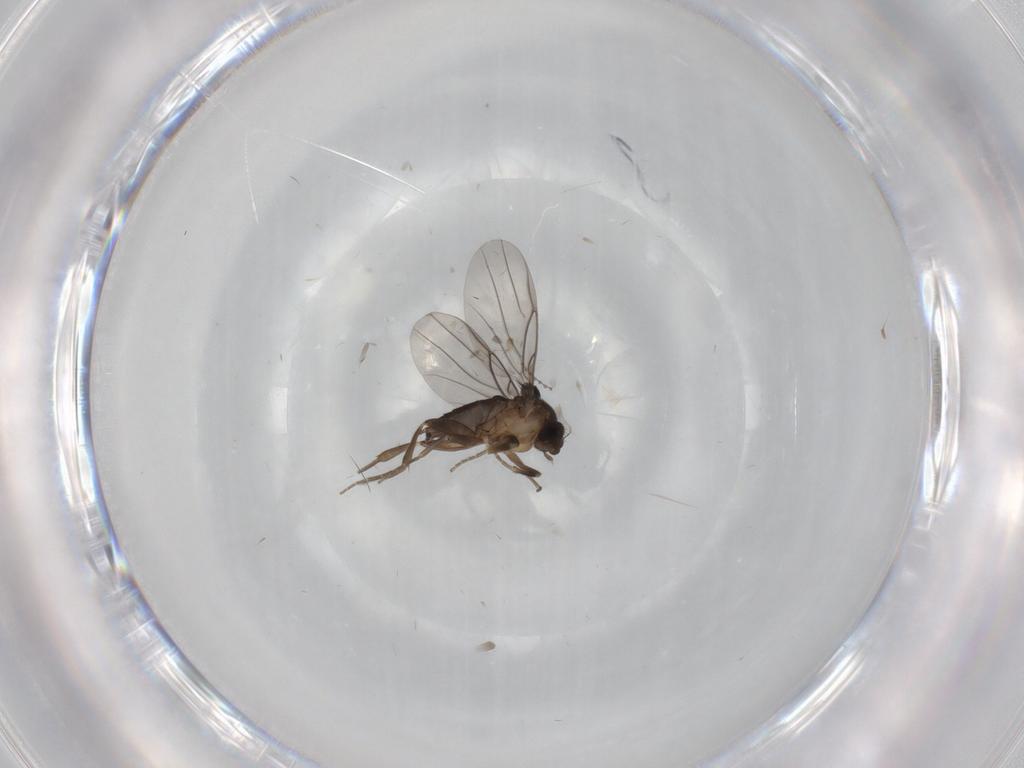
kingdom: Animalia
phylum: Arthropoda
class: Insecta
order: Diptera
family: Cecidomyiidae
